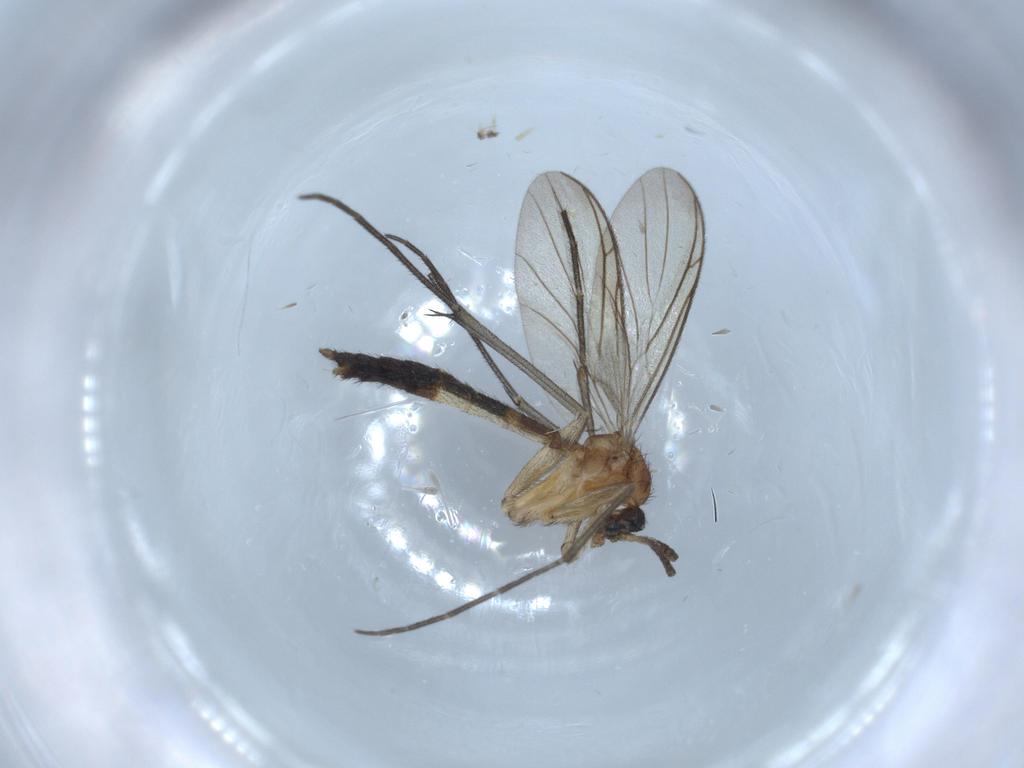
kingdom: Animalia
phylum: Arthropoda
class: Insecta
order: Diptera
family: Keroplatidae
